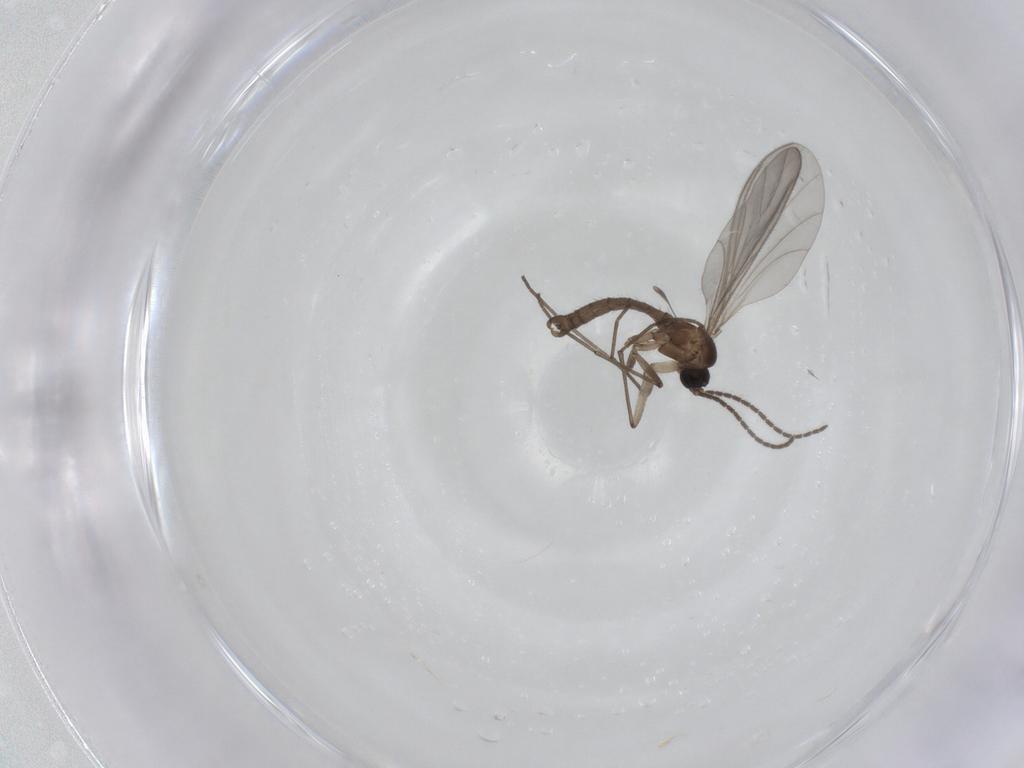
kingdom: Animalia
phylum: Arthropoda
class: Insecta
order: Diptera
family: Sciaridae
